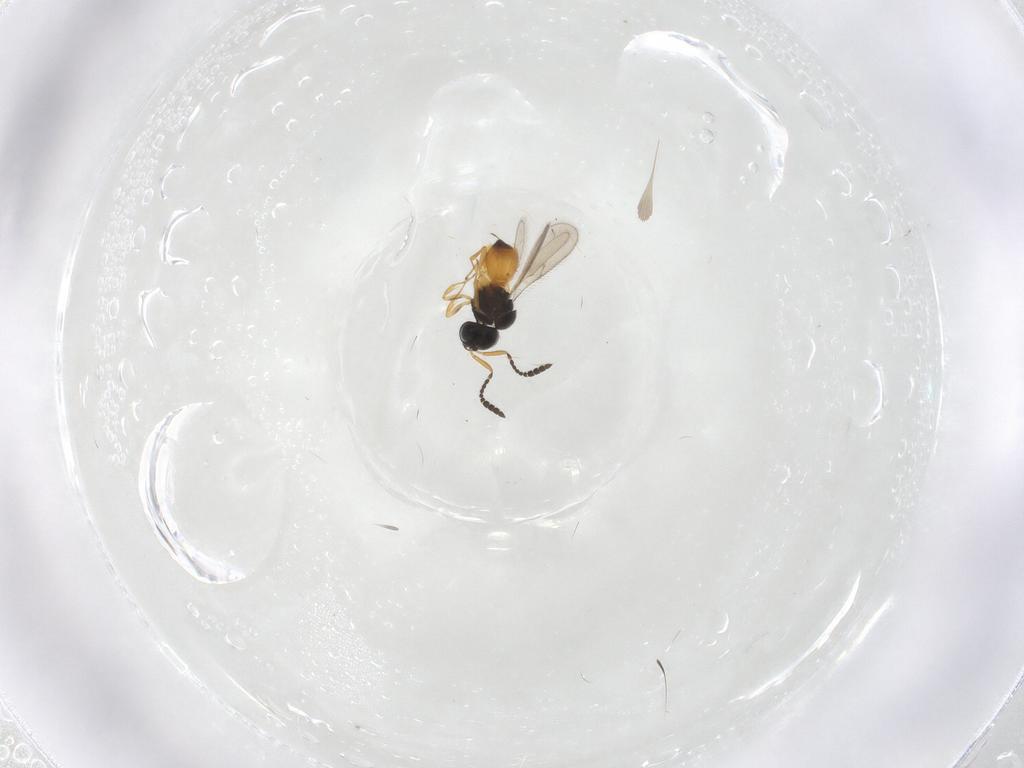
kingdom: Animalia
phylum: Arthropoda
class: Insecta
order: Hymenoptera
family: Scelionidae
